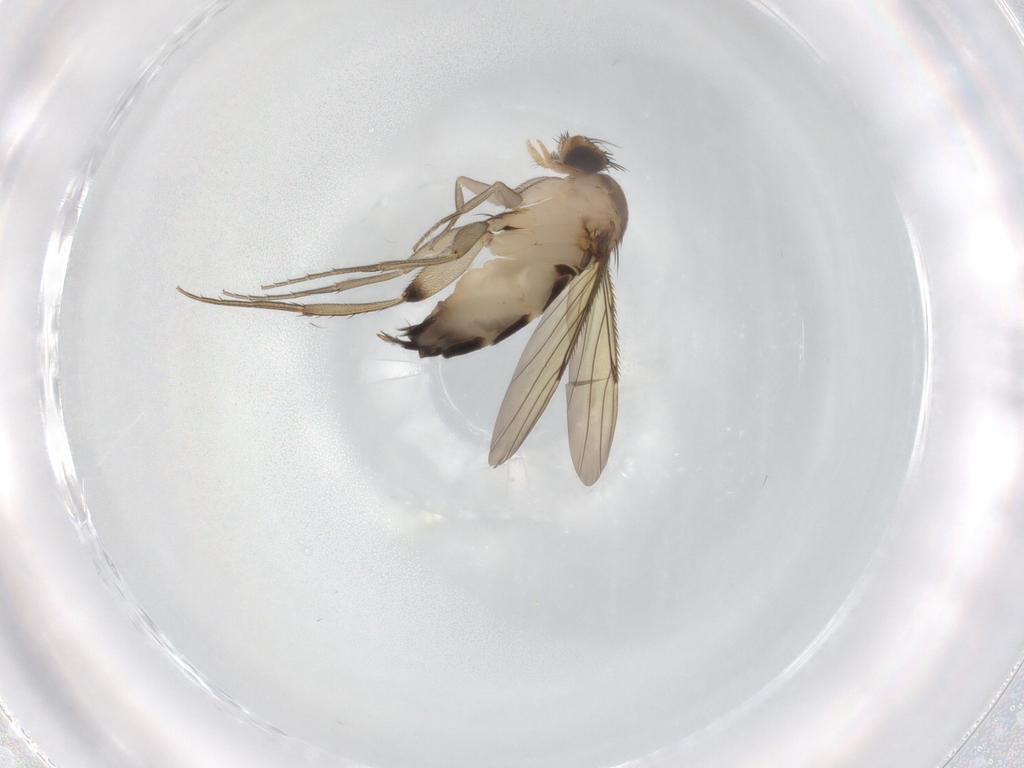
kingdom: Animalia
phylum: Arthropoda
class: Insecta
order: Diptera
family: Phoridae
